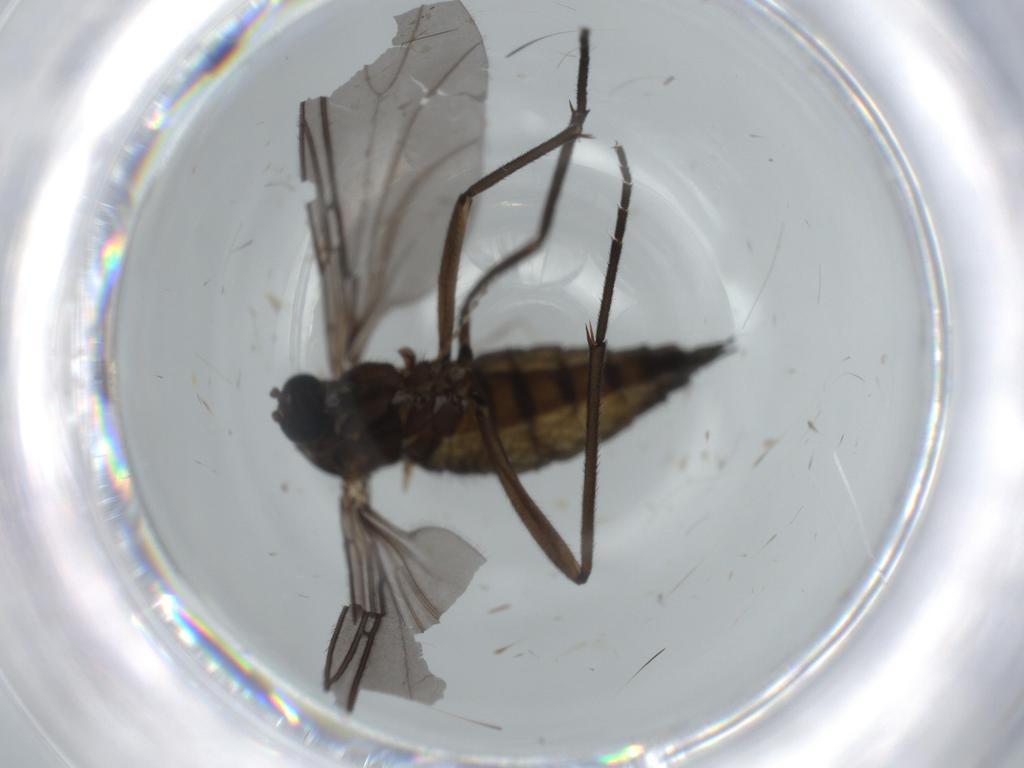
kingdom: Animalia
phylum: Arthropoda
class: Insecta
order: Diptera
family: Sciaridae
